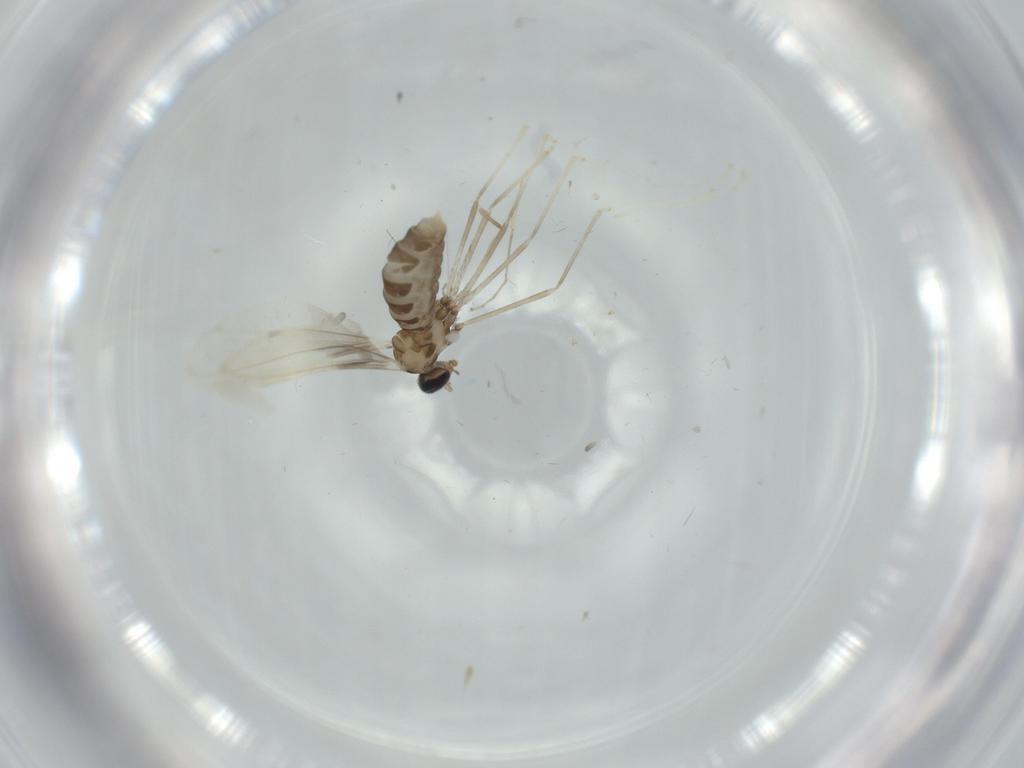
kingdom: Animalia
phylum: Arthropoda
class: Insecta
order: Diptera
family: Cecidomyiidae
